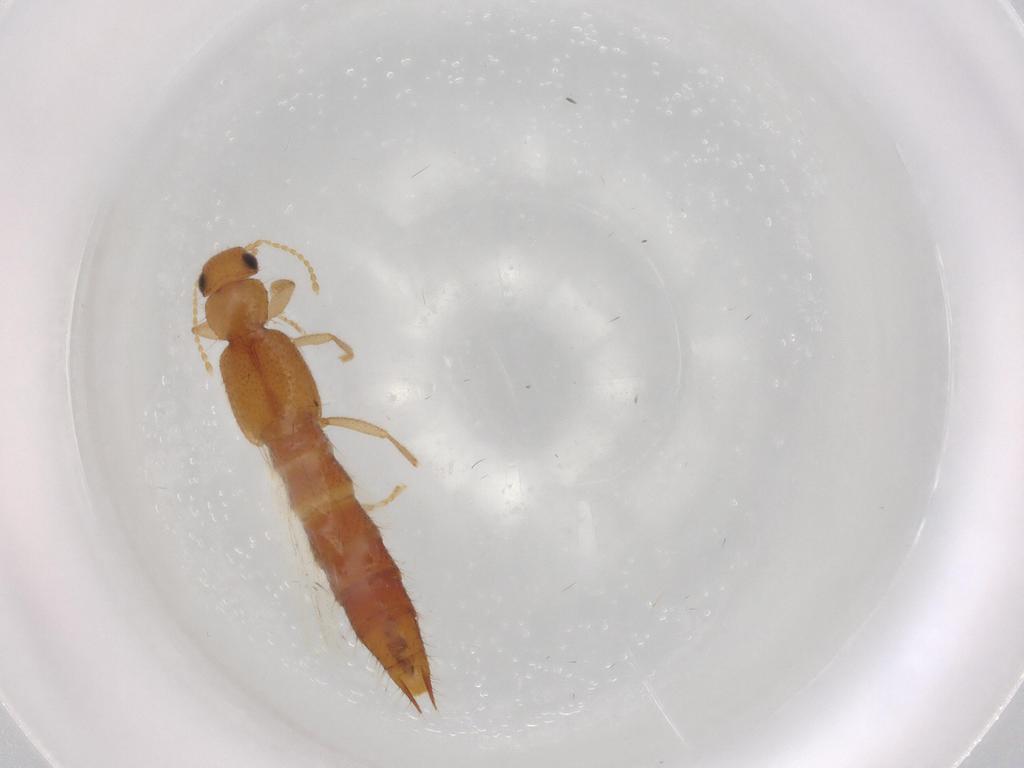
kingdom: Animalia
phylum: Arthropoda
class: Insecta
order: Coleoptera
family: Staphylinidae
